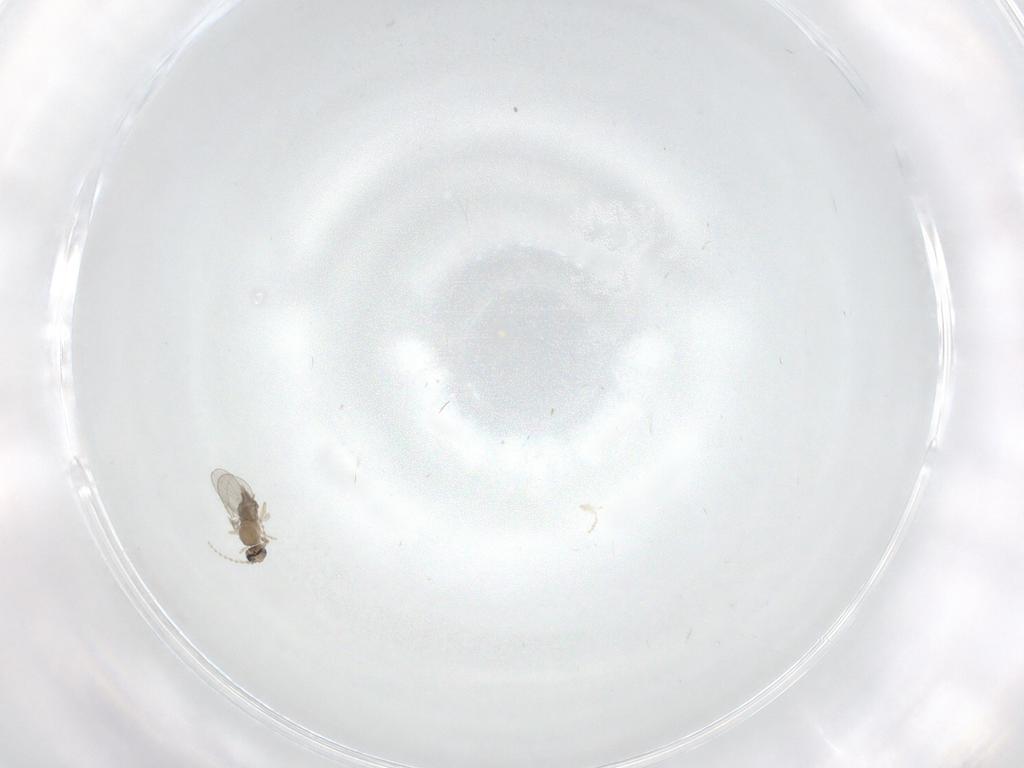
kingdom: Animalia
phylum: Arthropoda
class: Insecta
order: Diptera
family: Cecidomyiidae
